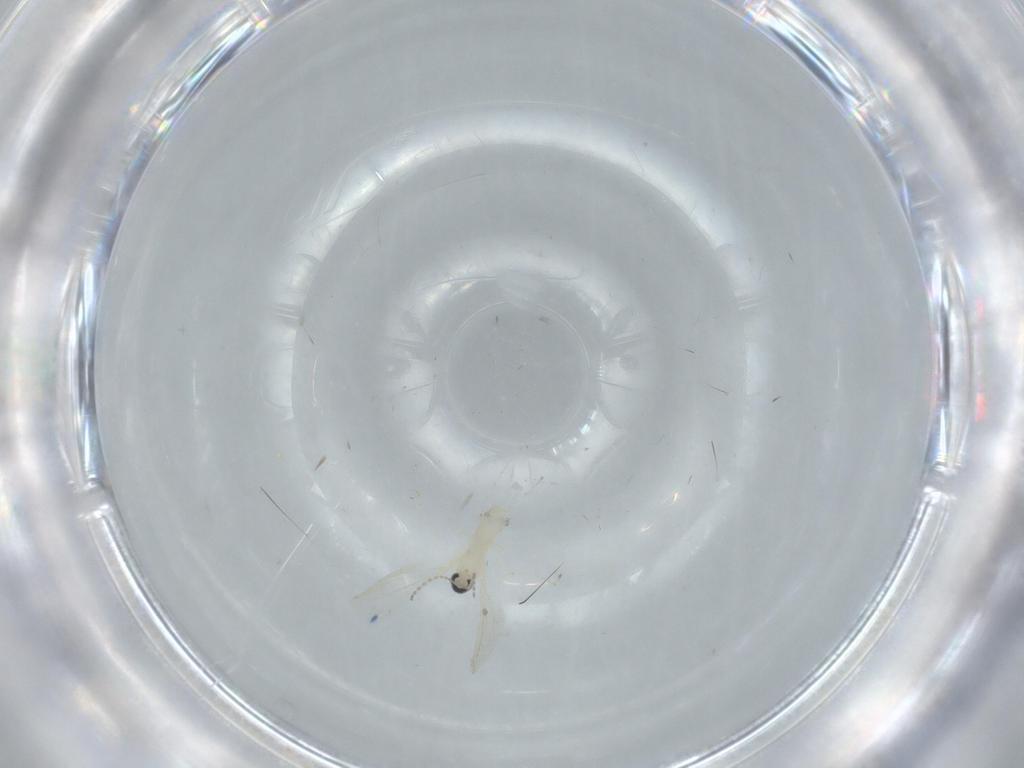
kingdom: Animalia
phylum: Arthropoda
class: Insecta
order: Diptera
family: Cecidomyiidae
